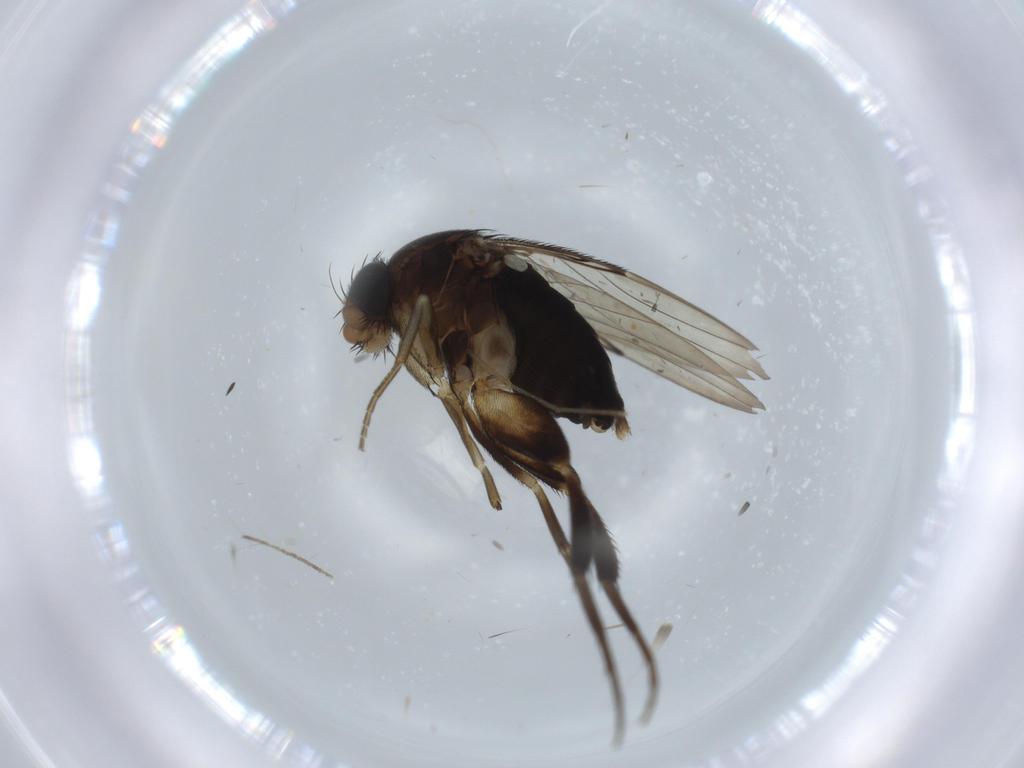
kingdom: Animalia
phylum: Arthropoda
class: Insecta
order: Diptera
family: Phoridae
